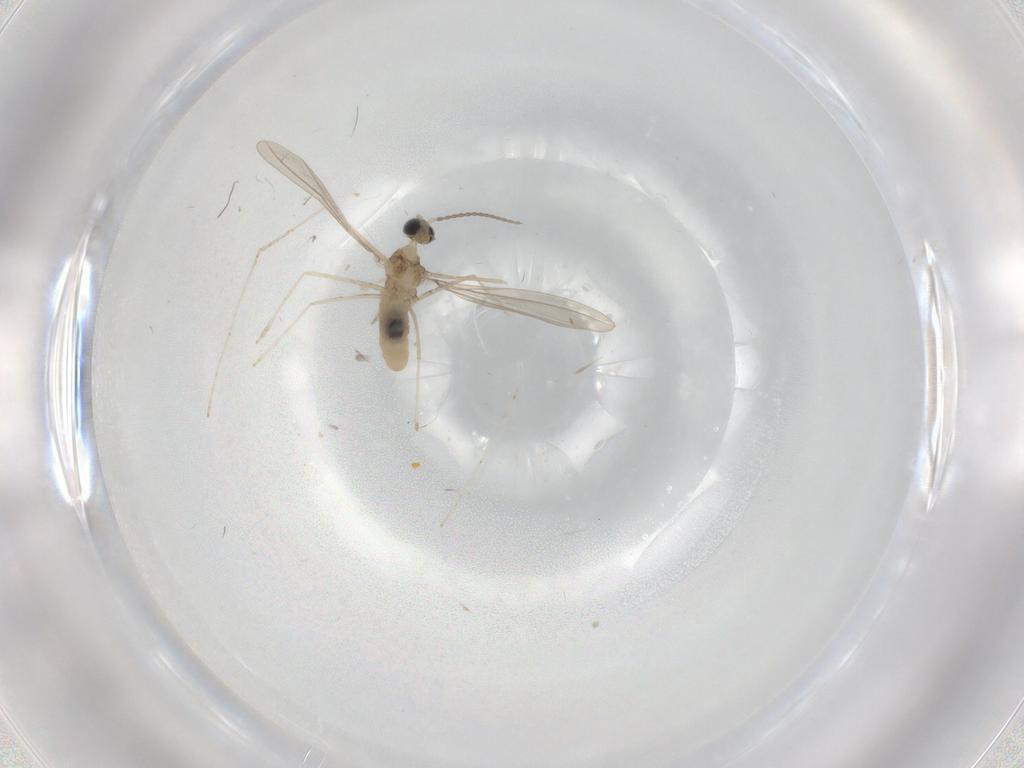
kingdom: Animalia
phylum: Arthropoda
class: Insecta
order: Diptera
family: Cecidomyiidae
